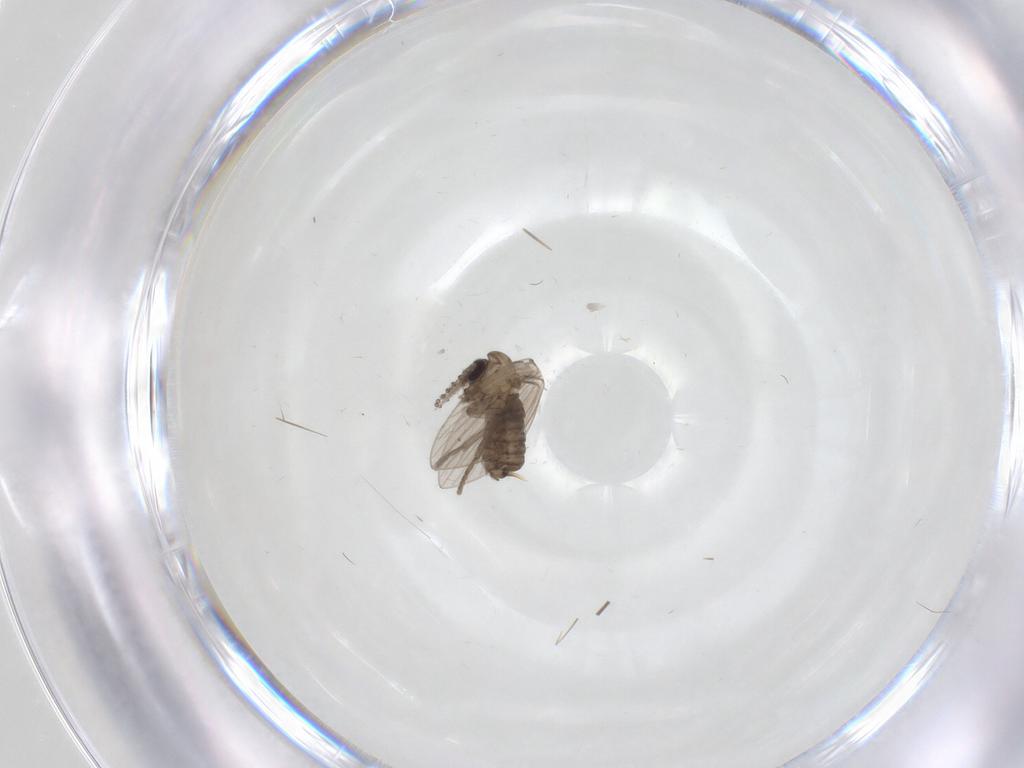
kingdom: Animalia
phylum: Arthropoda
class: Insecta
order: Diptera
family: Psychodidae
